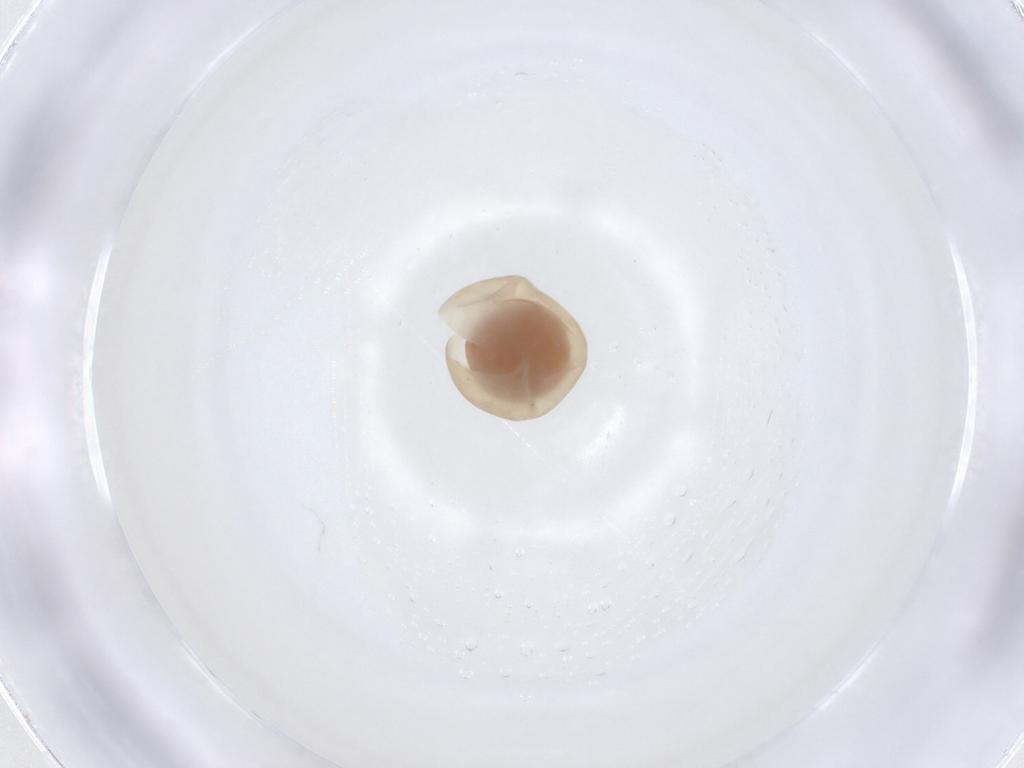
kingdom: Animalia
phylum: Arthropoda
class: Insecta
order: Hymenoptera
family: Scelionidae
